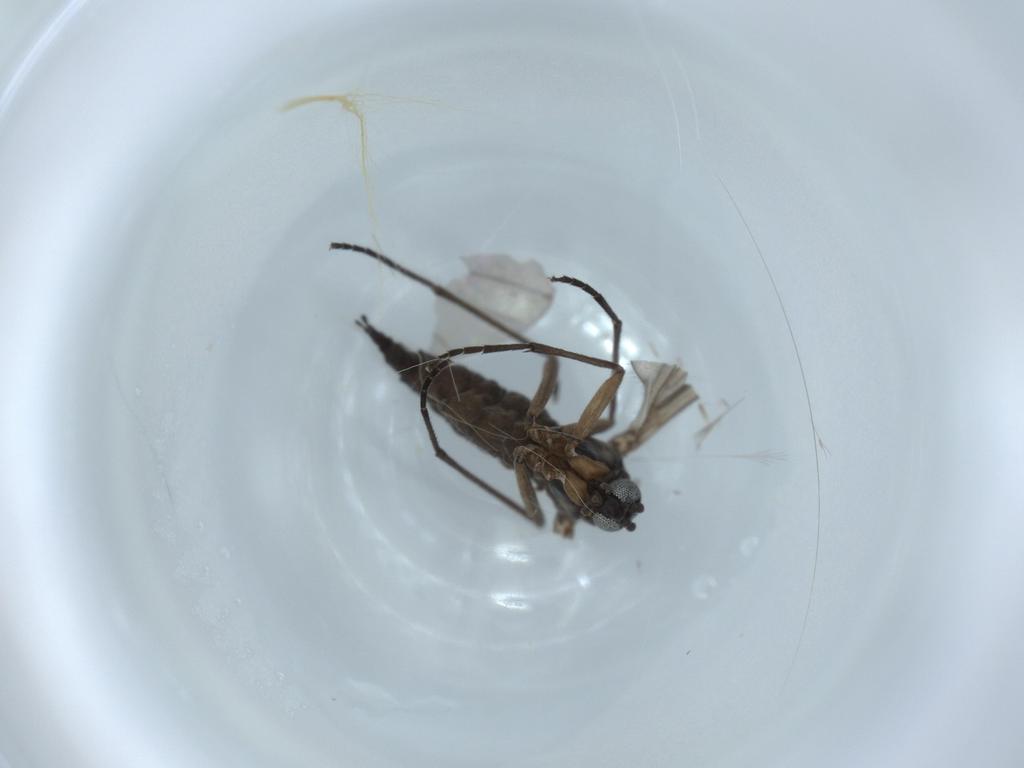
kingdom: Animalia
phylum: Arthropoda
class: Insecta
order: Diptera
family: Sciaridae
